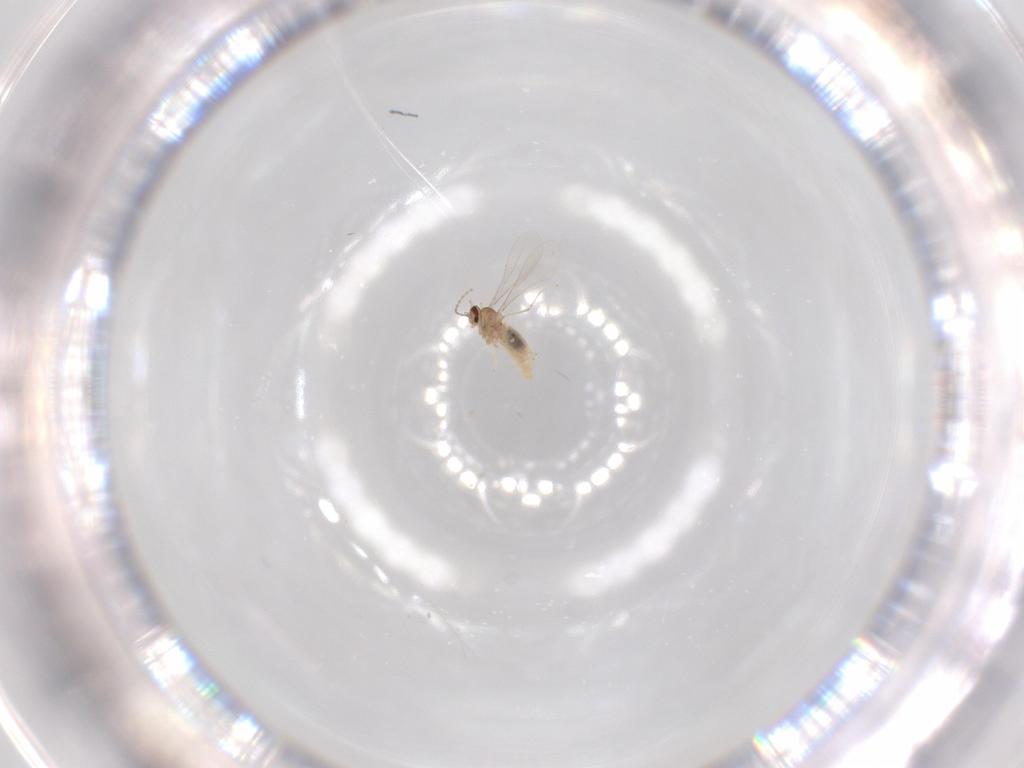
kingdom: Animalia
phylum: Arthropoda
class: Insecta
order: Diptera
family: Cecidomyiidae
